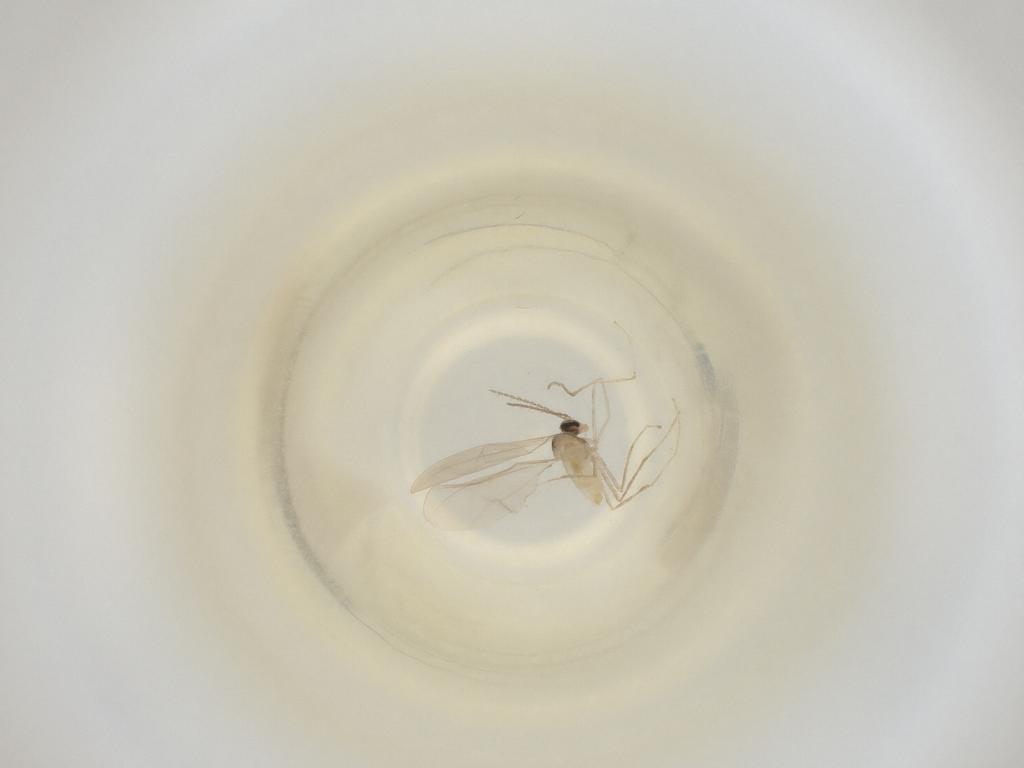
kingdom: Animalia
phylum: Arthropoda
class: Insecta
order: Diptera
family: Cecidomyiidae
